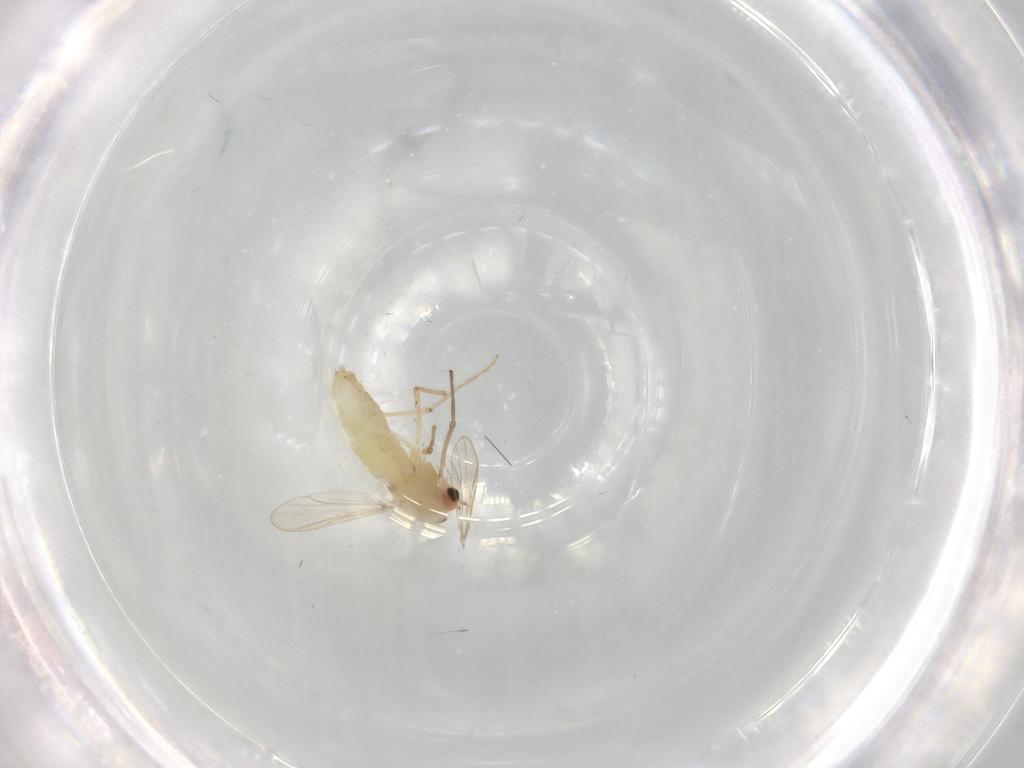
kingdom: Animalia
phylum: Arthropoda
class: Insecta
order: Diptera
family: Chironomidae
